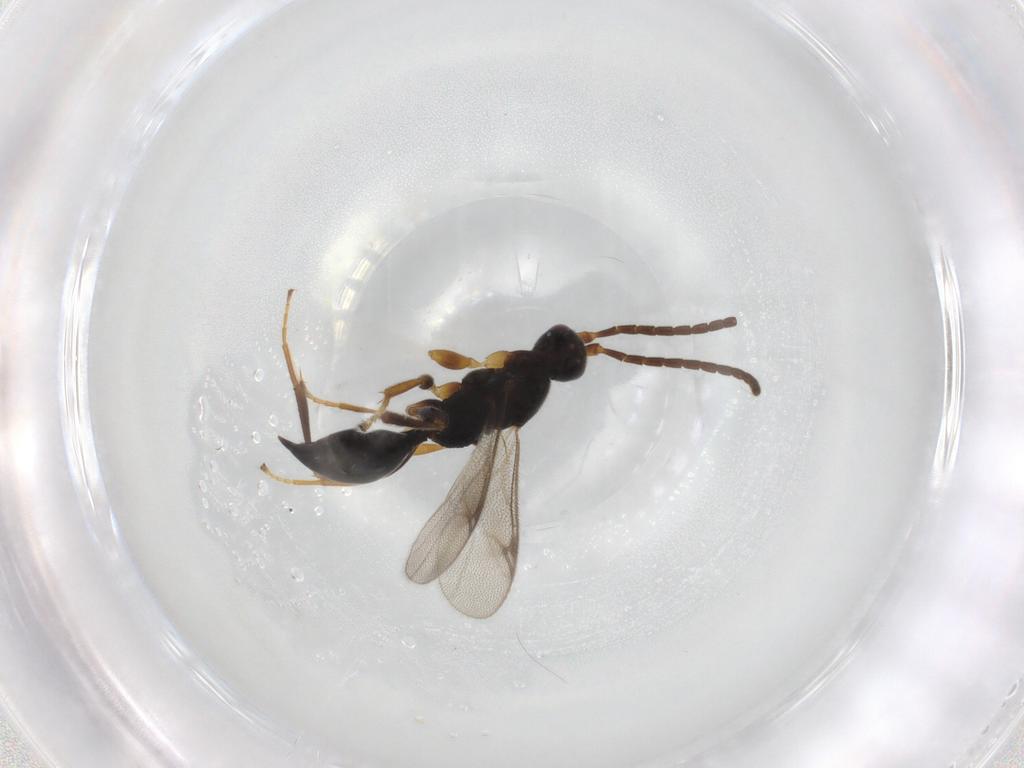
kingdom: Animalia
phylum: Arthropoda
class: Insecta
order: Hymenoptera
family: Proctotrupidae
